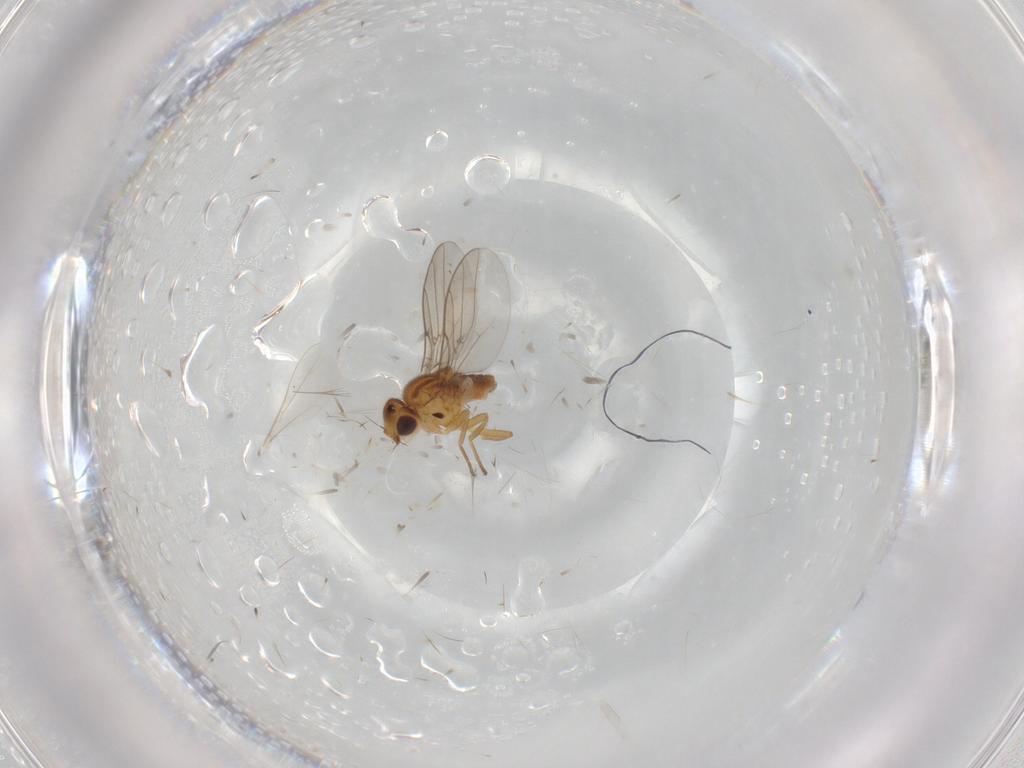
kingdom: Animalia
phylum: Arthropoda
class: Insecta
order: Diptera
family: Chloropidae
